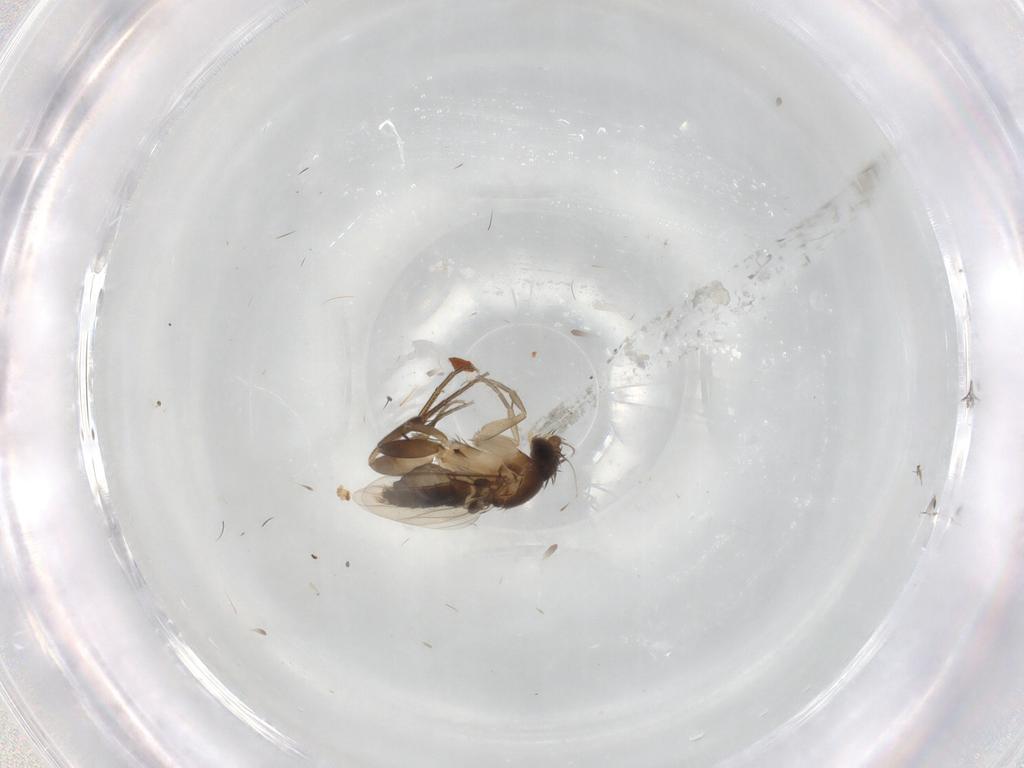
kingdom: Animalia
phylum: Arthropoda
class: Insecta
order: Diptera
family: Phoridae
